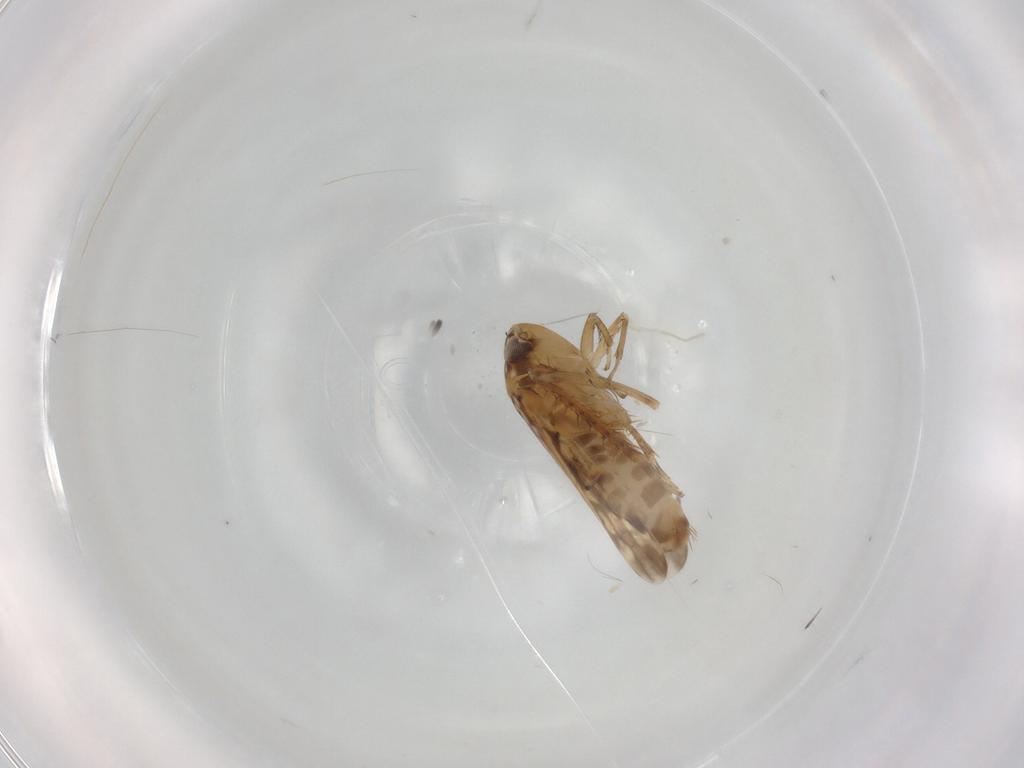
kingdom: Animalia
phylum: Arthropoda
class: Insecta
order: Hemiptera
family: Cicadellidae
